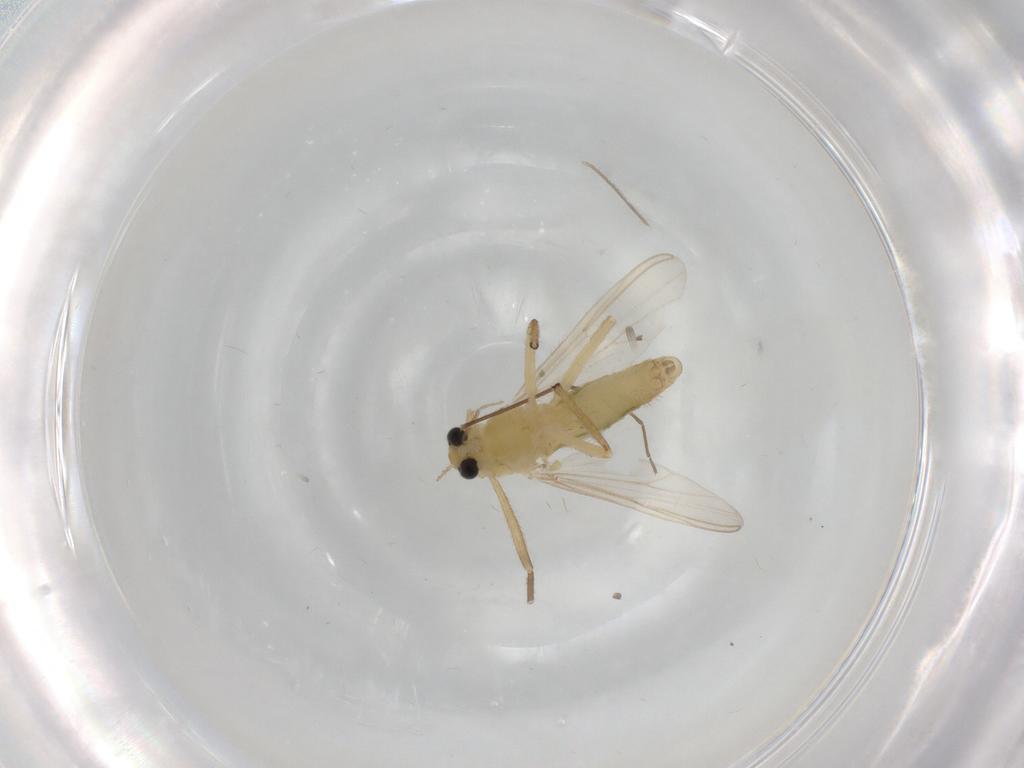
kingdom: Animalia
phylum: Arthropoda
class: Insecta
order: Diptera
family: Chironomidae
